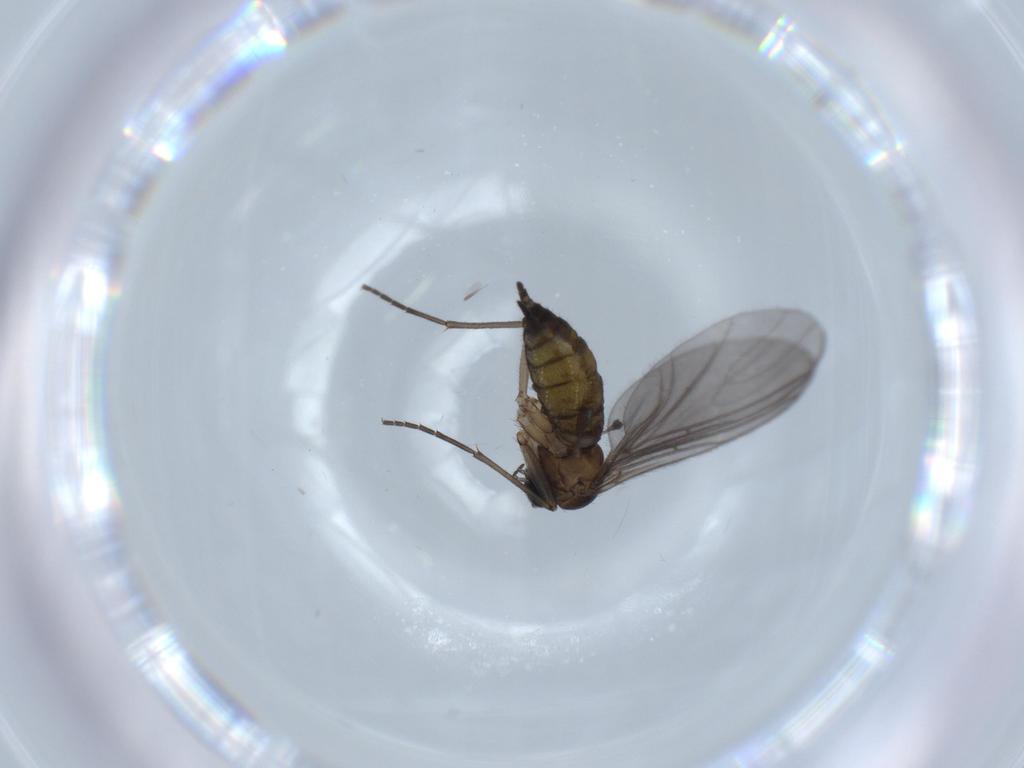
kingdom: Animalia
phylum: Arthropoda
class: Insecta
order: Diptera
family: Sciaridae
